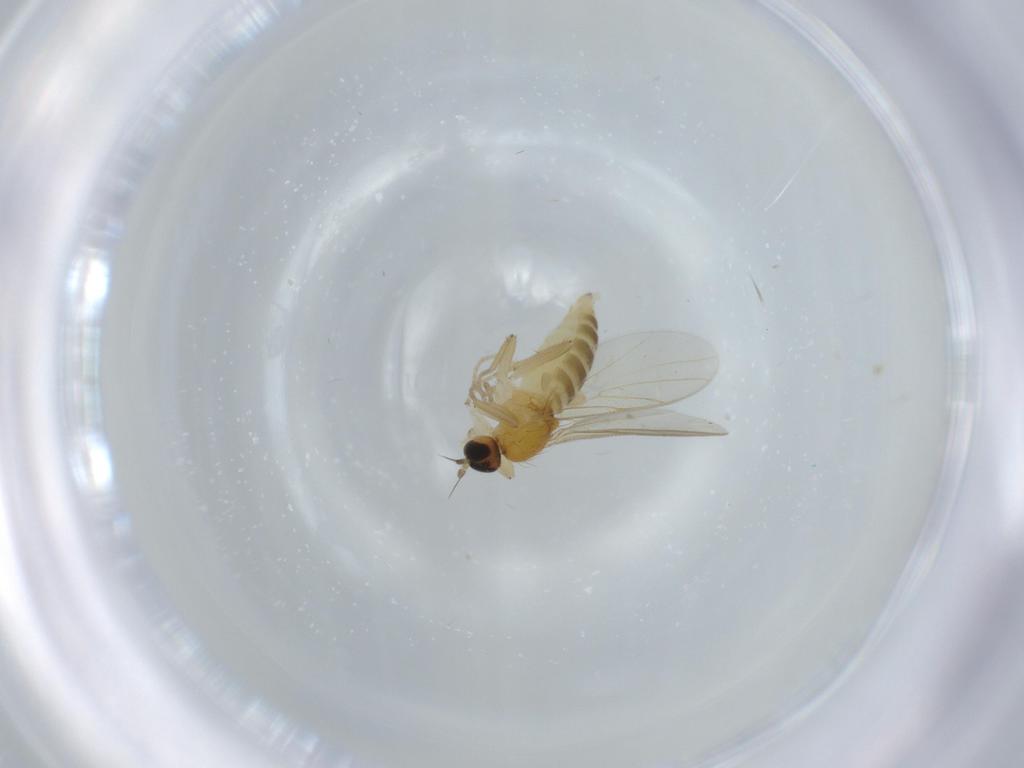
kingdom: Animalia
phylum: Arthropoda
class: Insecta
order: Diptera
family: Hybotidae
